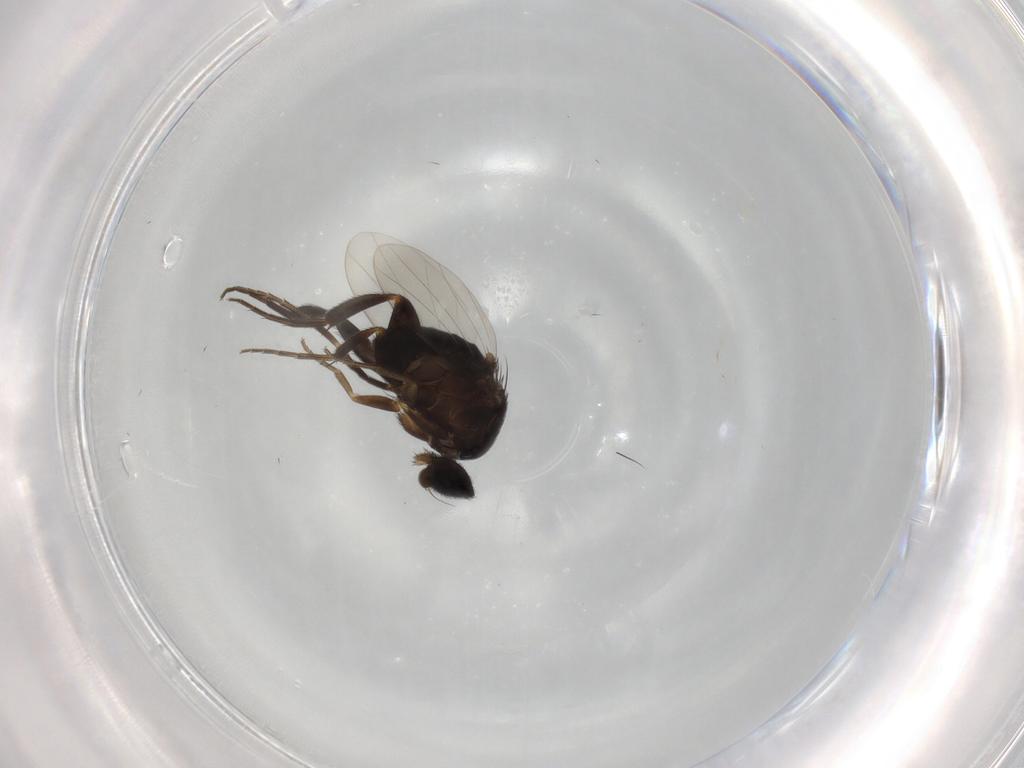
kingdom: Animalia
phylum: Arthropoda
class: Insecta
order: Diptera
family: Phoridae
